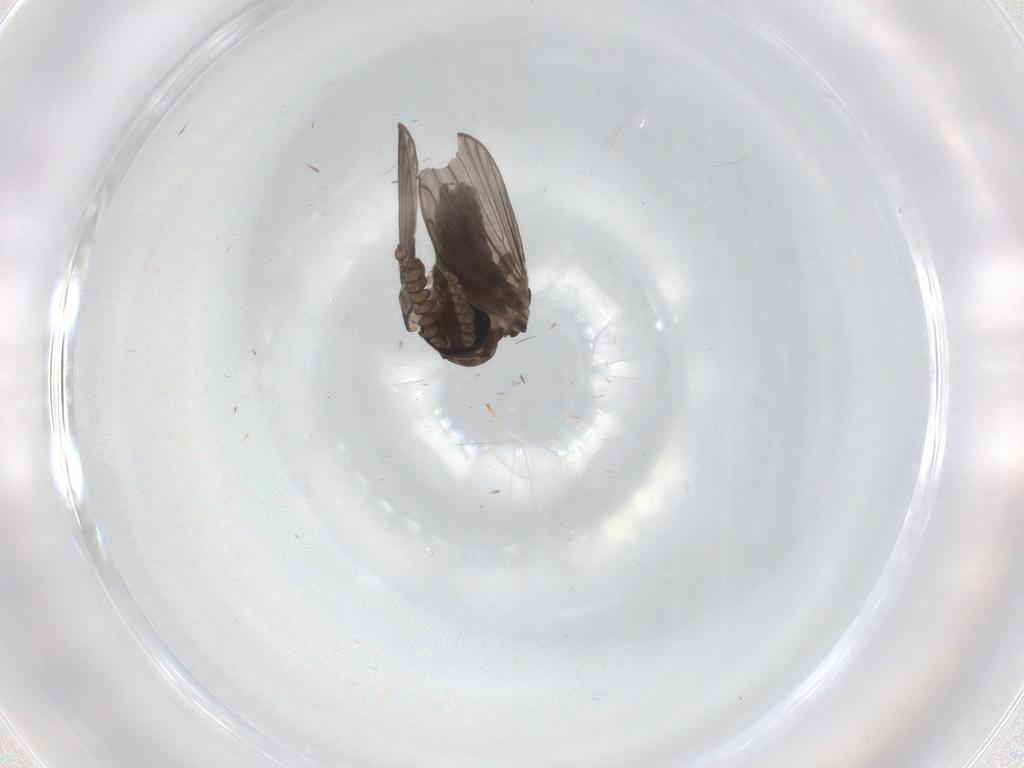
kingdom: Animalia
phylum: Arthropoda
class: Insecta
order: Diptera
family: Psychodidae
